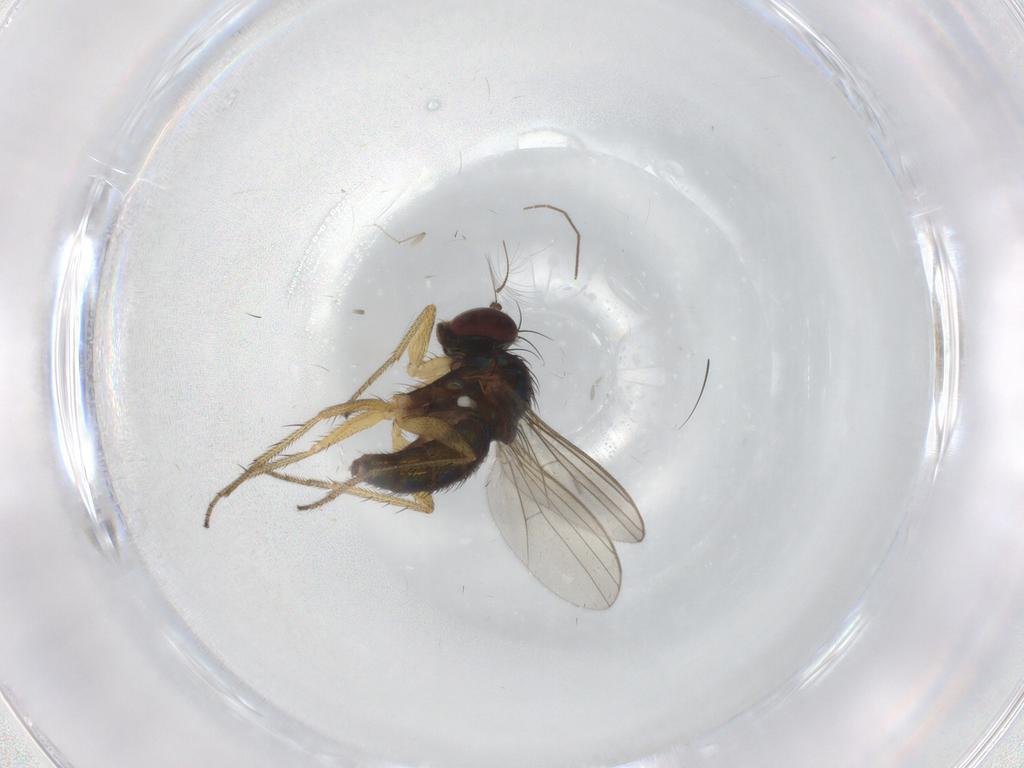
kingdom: Animalia
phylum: Arthropoda
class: Insecta
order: Diptera
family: Dolichopodidae
